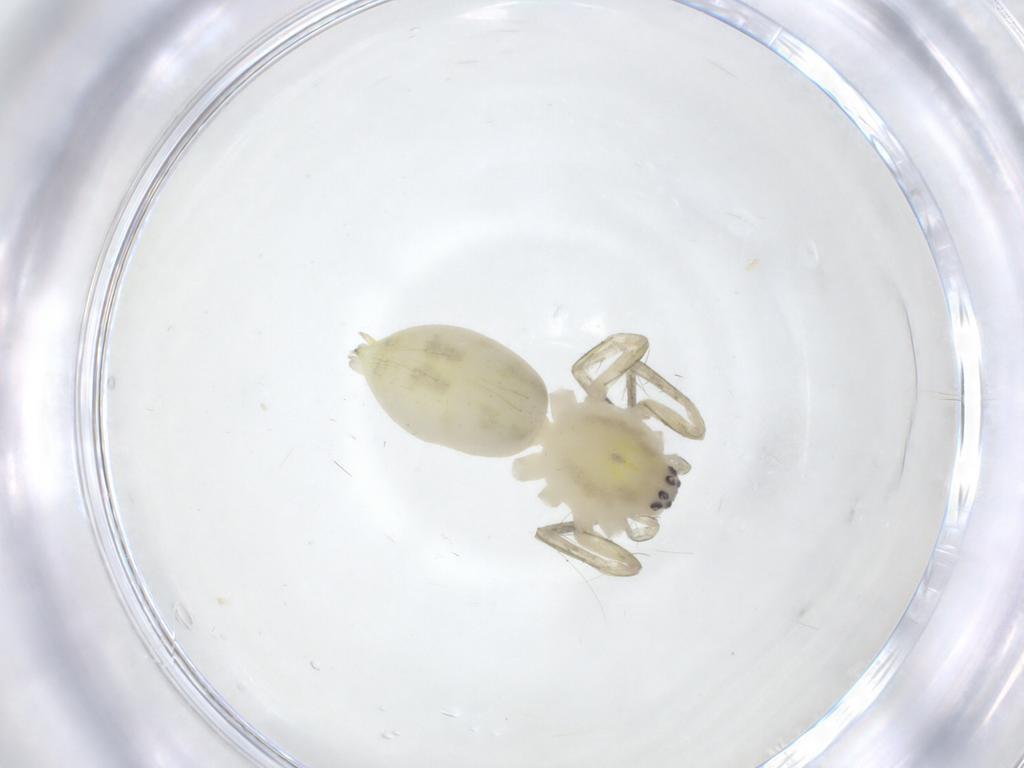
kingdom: Animalia
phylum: Arthropoda
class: Arachnida
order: Araneae
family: Anyphaenidae
